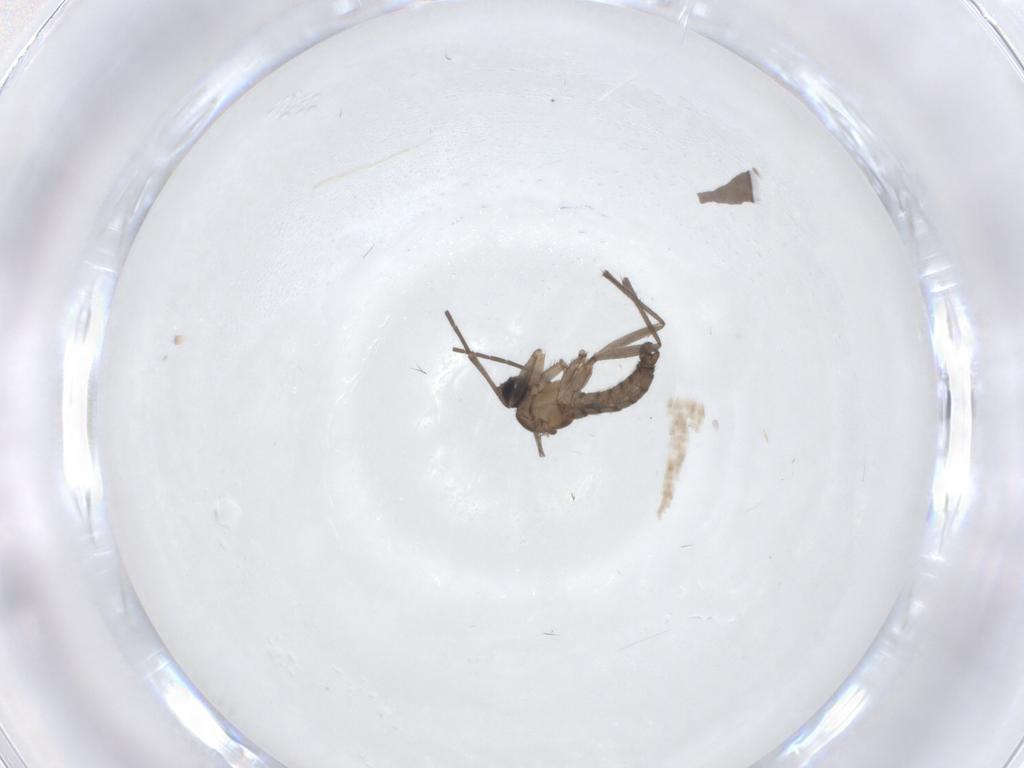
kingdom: Animalia
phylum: Arthropoda
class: Insecta
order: Diptera
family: Sciaridae
